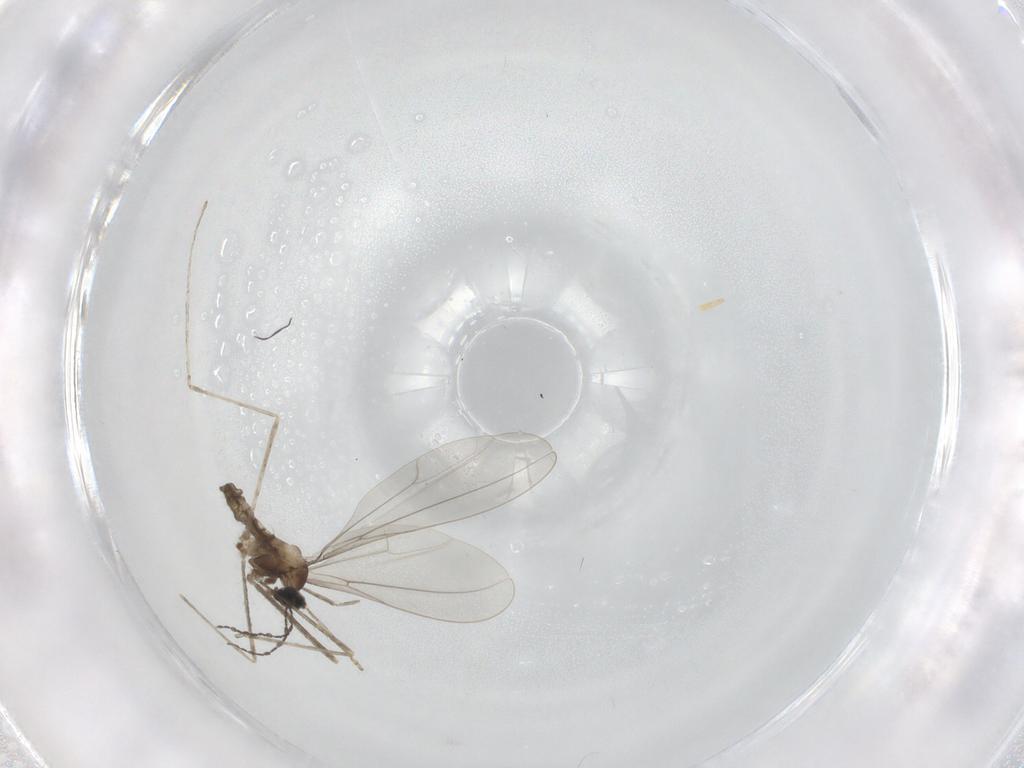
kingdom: Animalia
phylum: Arthropoda
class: Insecta
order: Diptera
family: Cecidomyiidae
